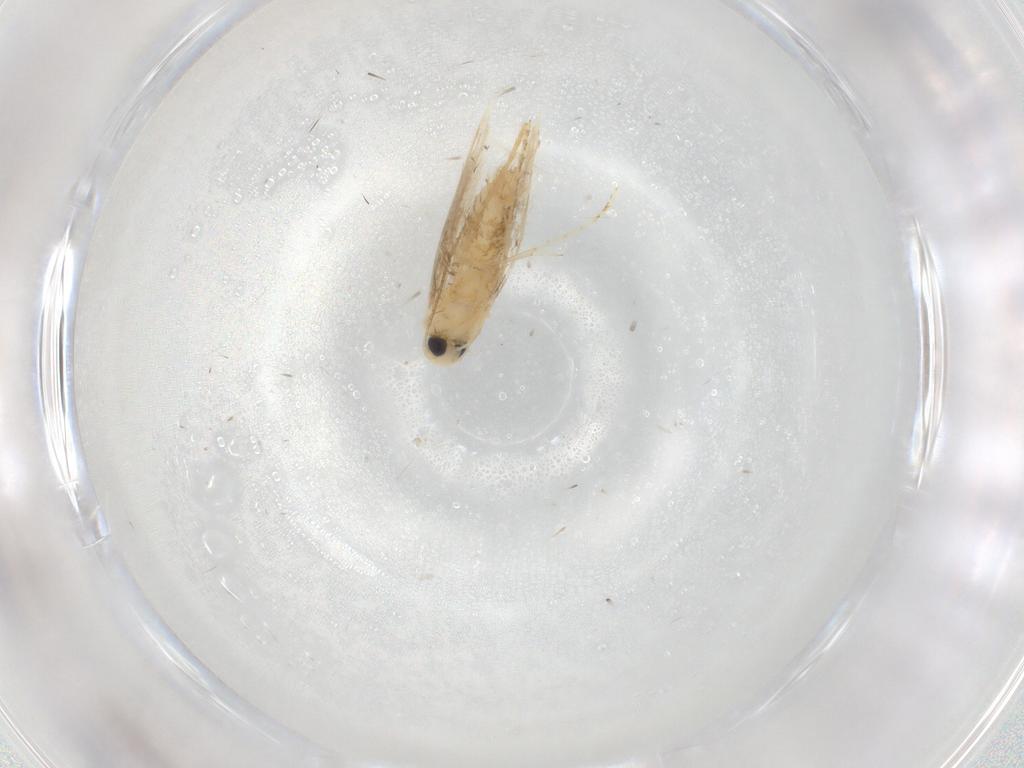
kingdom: Animalia
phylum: Arthropoda
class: Insecta
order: Lepidoptera
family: Tischeriidae
